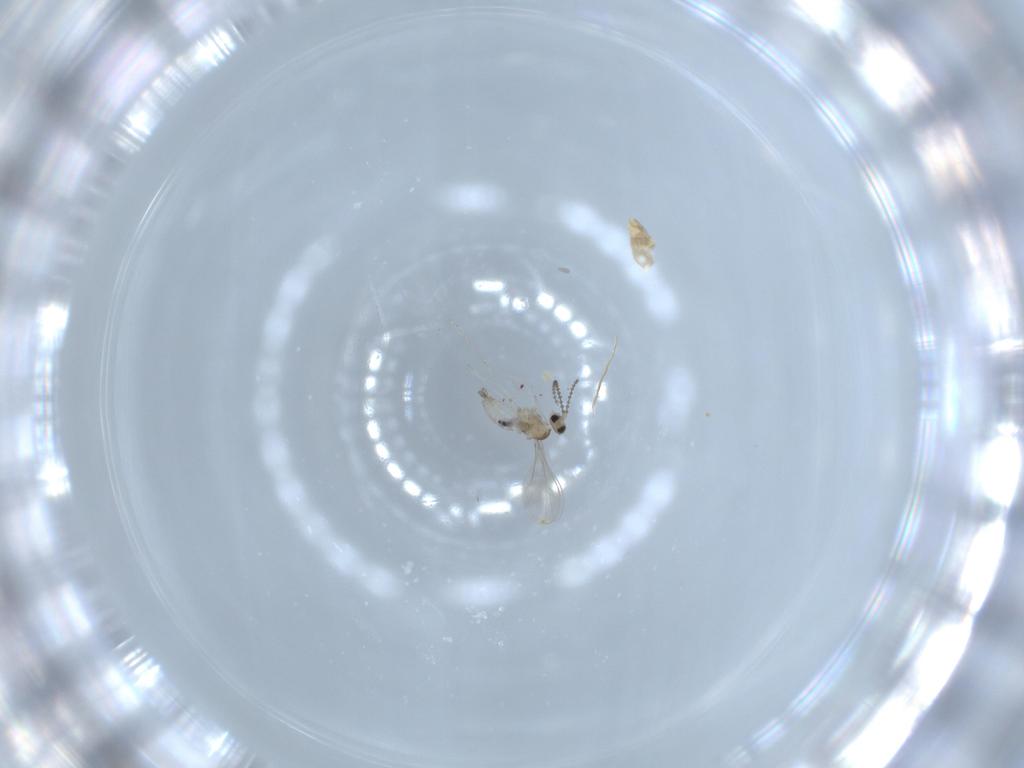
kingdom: Animalia
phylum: Arthropoda
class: Insecta
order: Diptera
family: Cecidomyiidae
